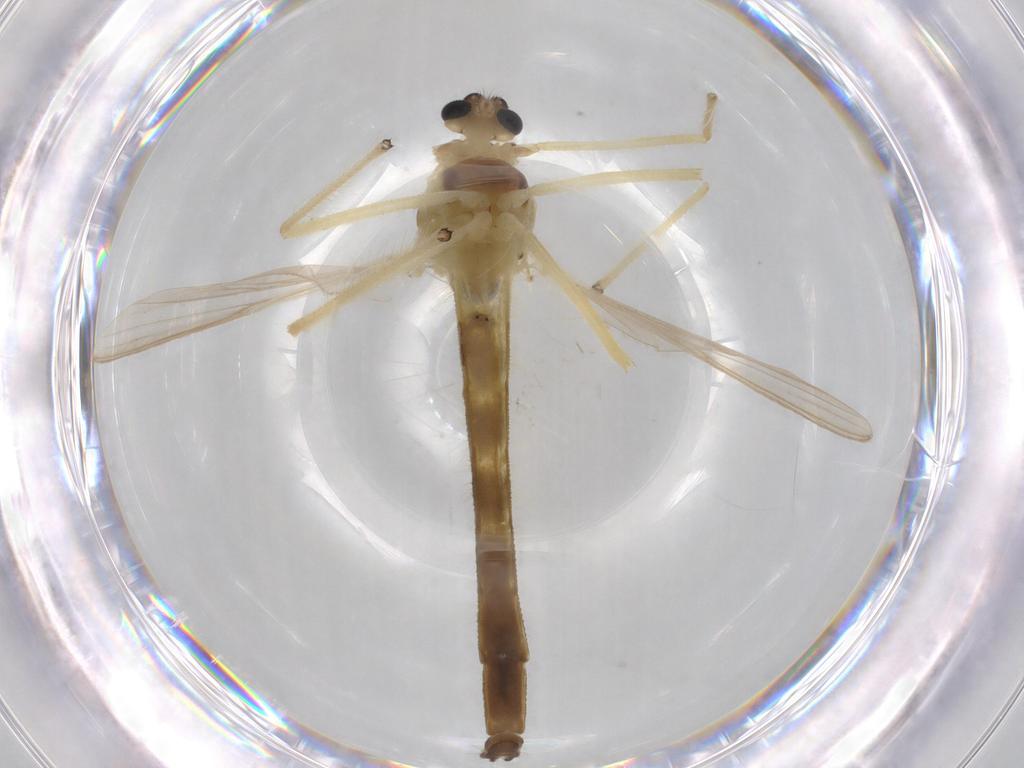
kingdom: Animalia
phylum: Arthropoda
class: Insecta
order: Diptera
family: Chironomidae
